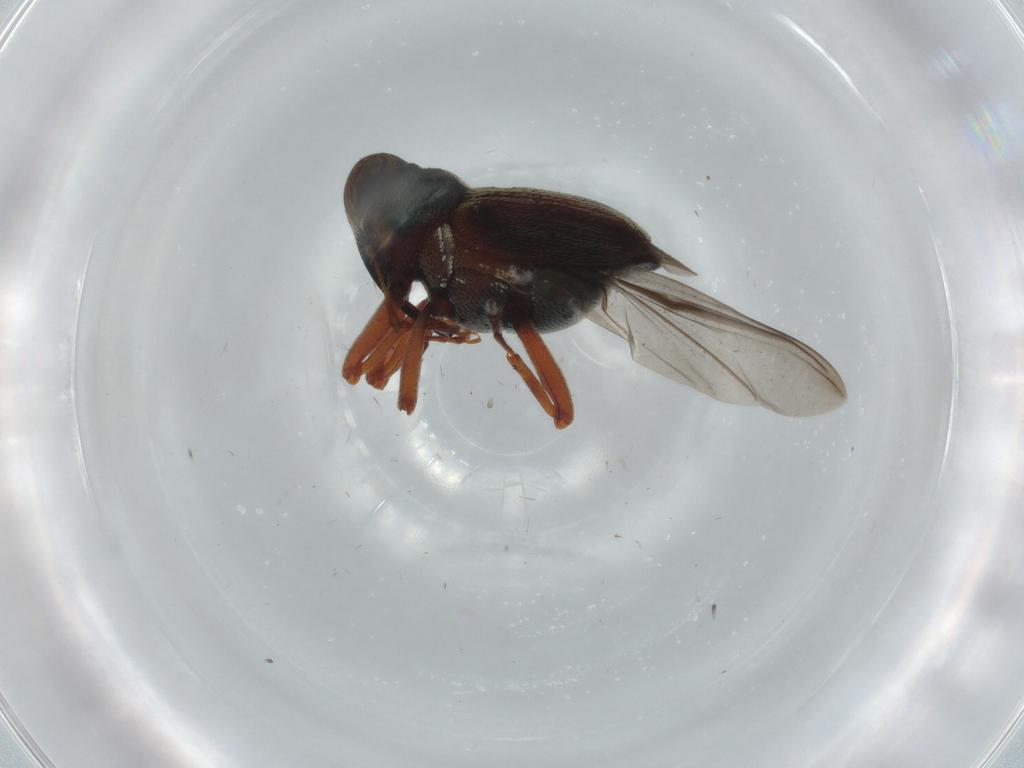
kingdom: Animalia
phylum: Arthropoda
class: Insecta
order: Coleoptera
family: Curculionidae
